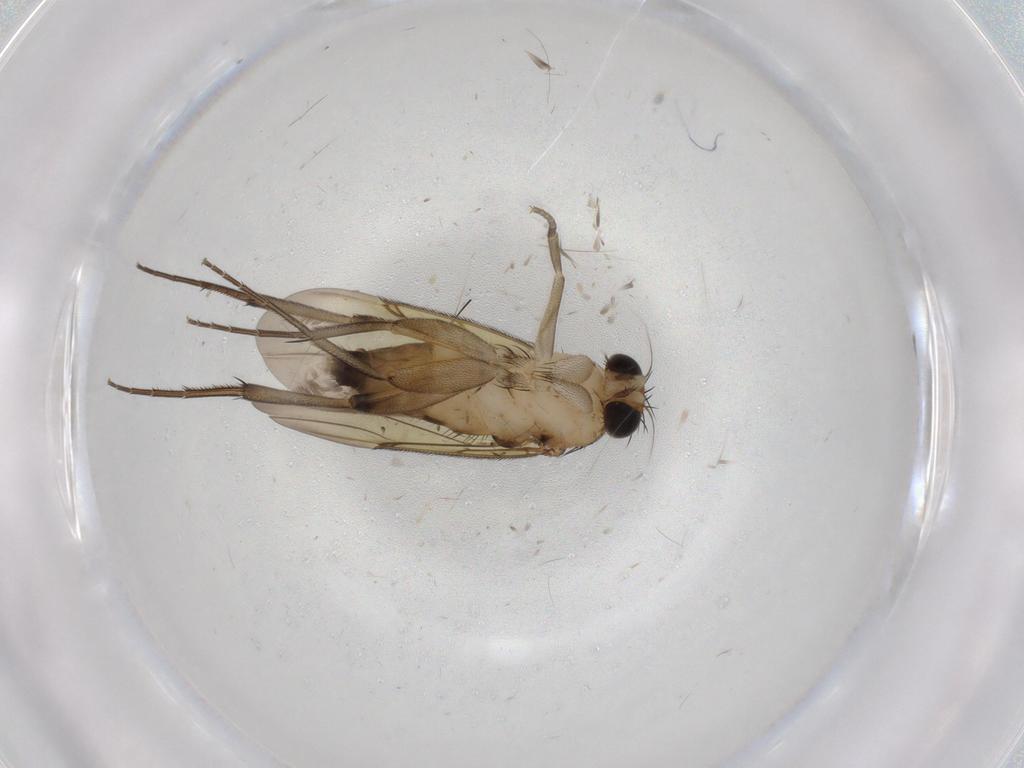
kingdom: Animalia
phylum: Arthropoda
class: Insecta
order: Diptera
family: Phoridae
